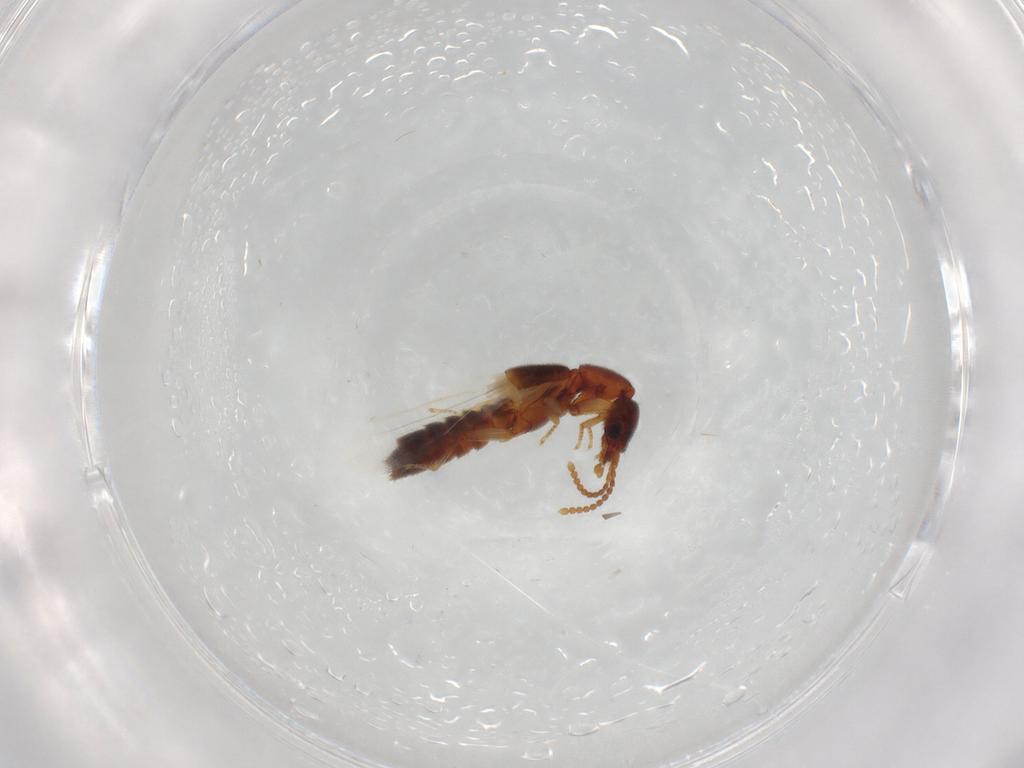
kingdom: Animalia
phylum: Arthropoda
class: Insecta
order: Coleoptera
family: Staphylinidae
